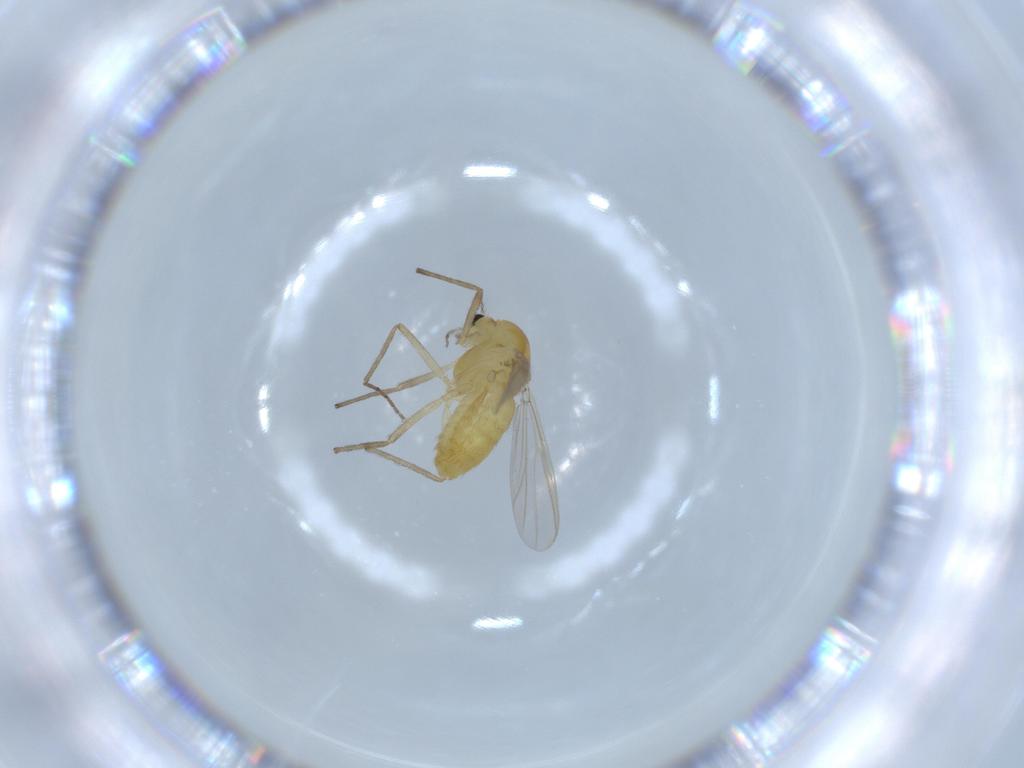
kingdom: Animalia
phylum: Arthropoda
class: Insecta
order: Diptera
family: Chironomidae
